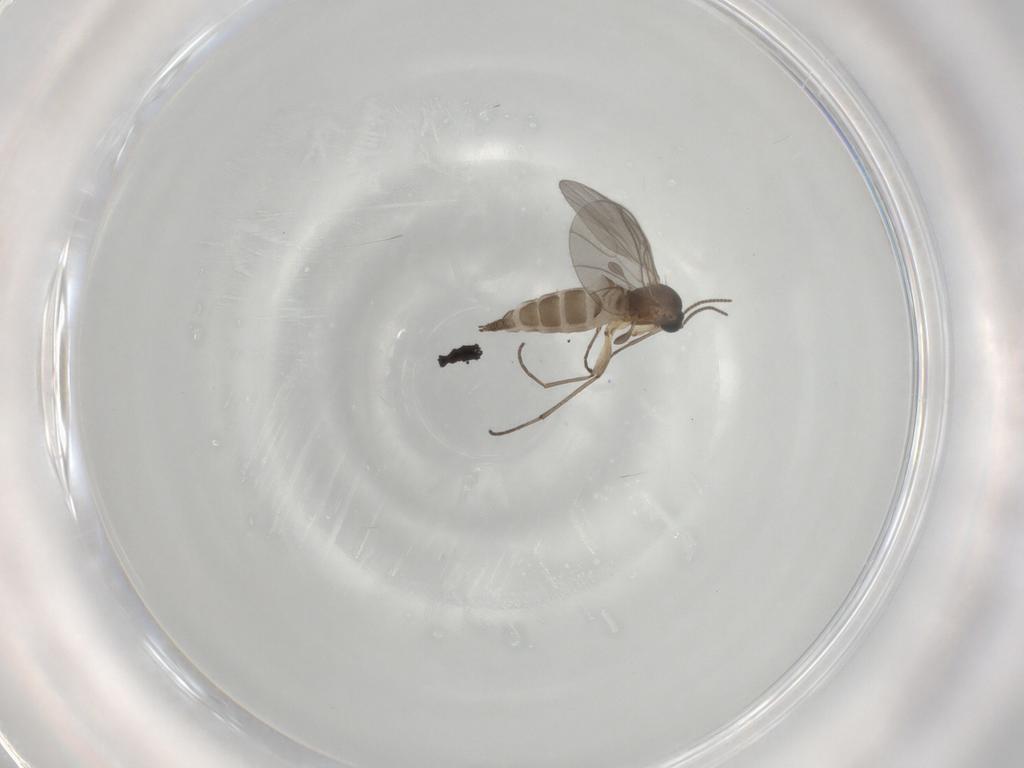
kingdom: Animalia
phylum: Arthropoda
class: Insecta
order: Diptera
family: Sciaridae
